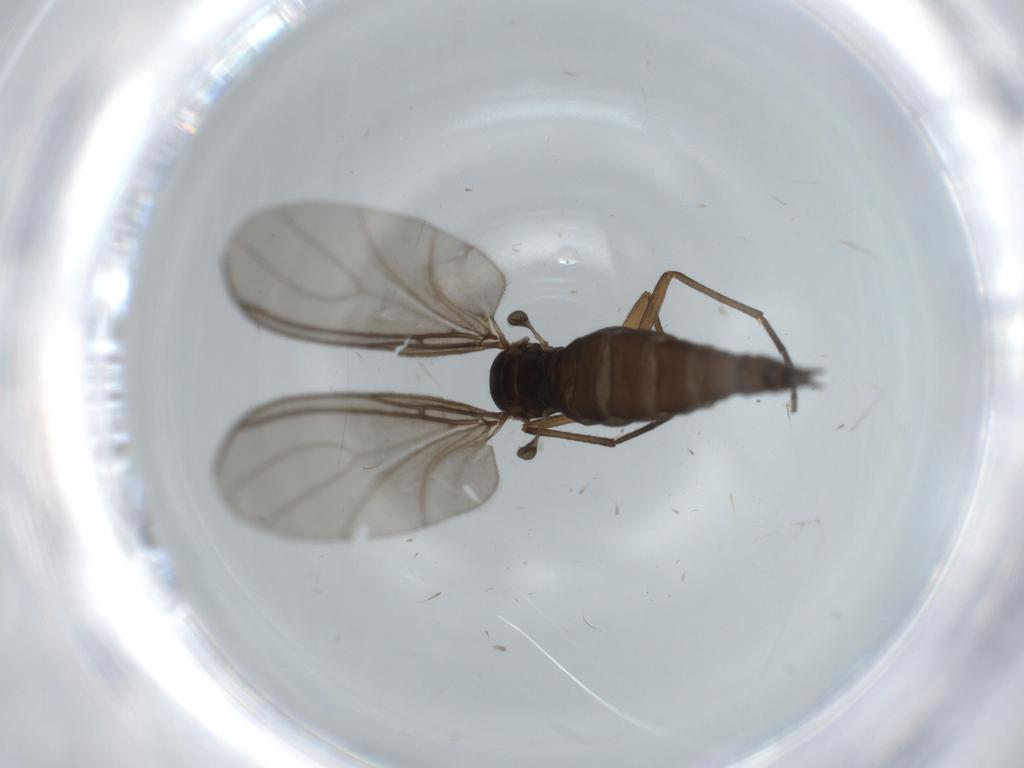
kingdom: Animalia
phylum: Arthropoda
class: Insecta
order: Diptera
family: Sciaridae
